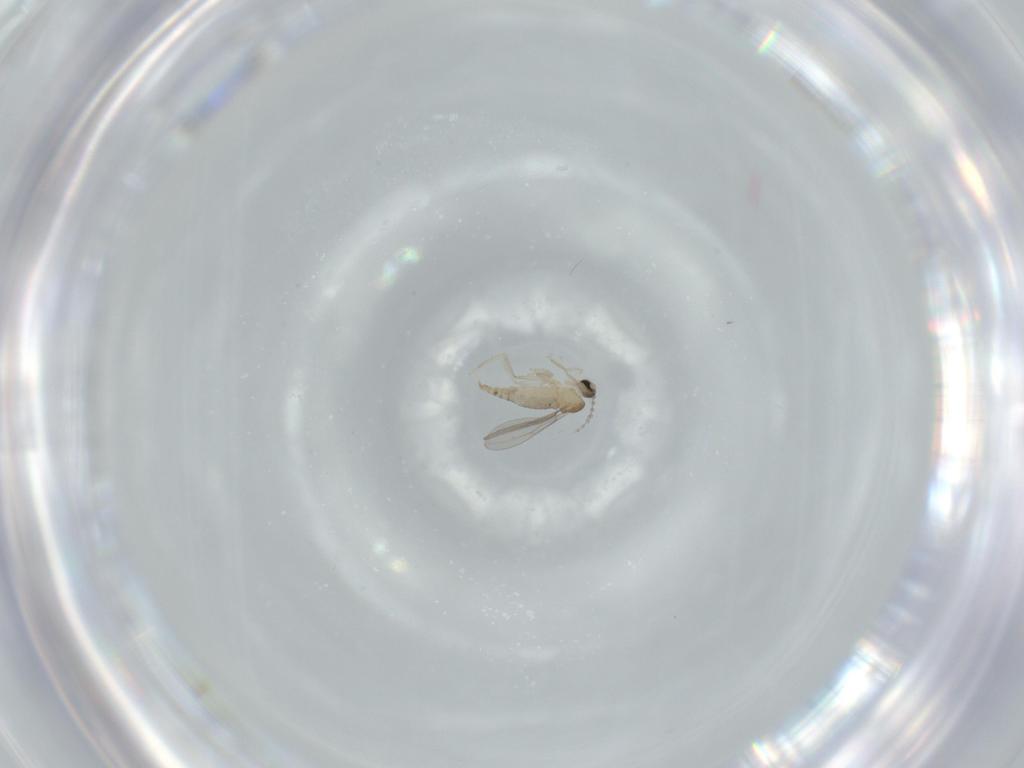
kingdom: Animalia
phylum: Arthropoda
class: Insecta
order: Diptera
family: Cecidomyiidae
